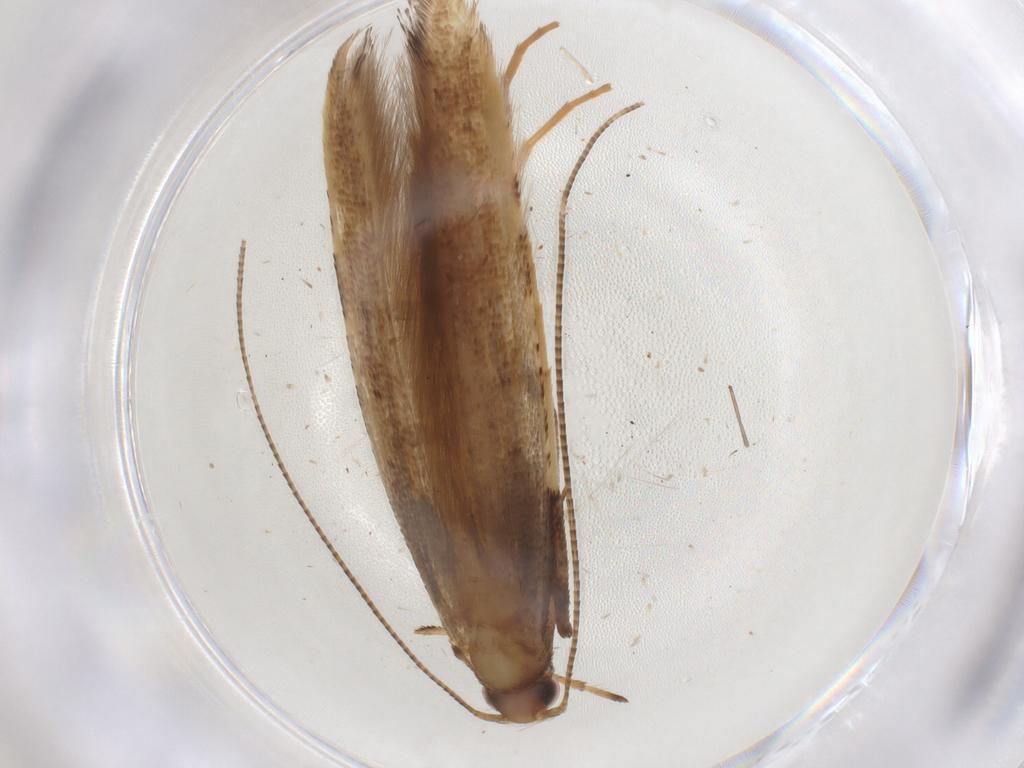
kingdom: Animalia
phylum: Arthropoda
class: Insecta
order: Lepidoptera
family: Gracillariidae
